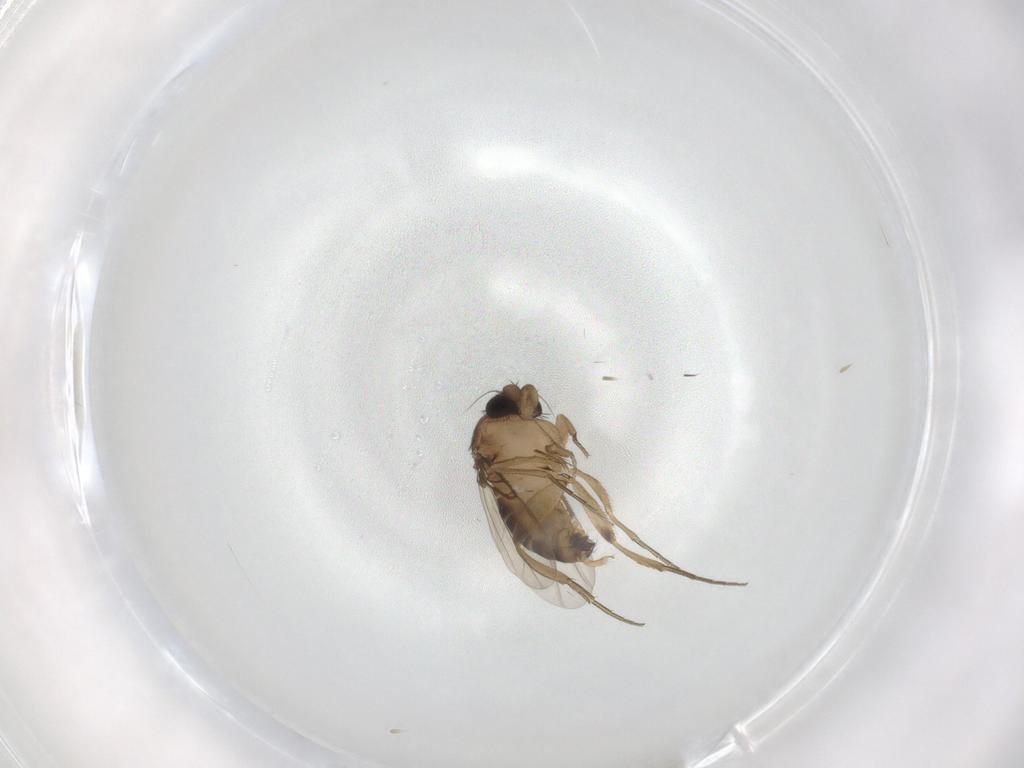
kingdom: Animalia
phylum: Arthropoda
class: Insecta
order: Diptera
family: Phoridae
